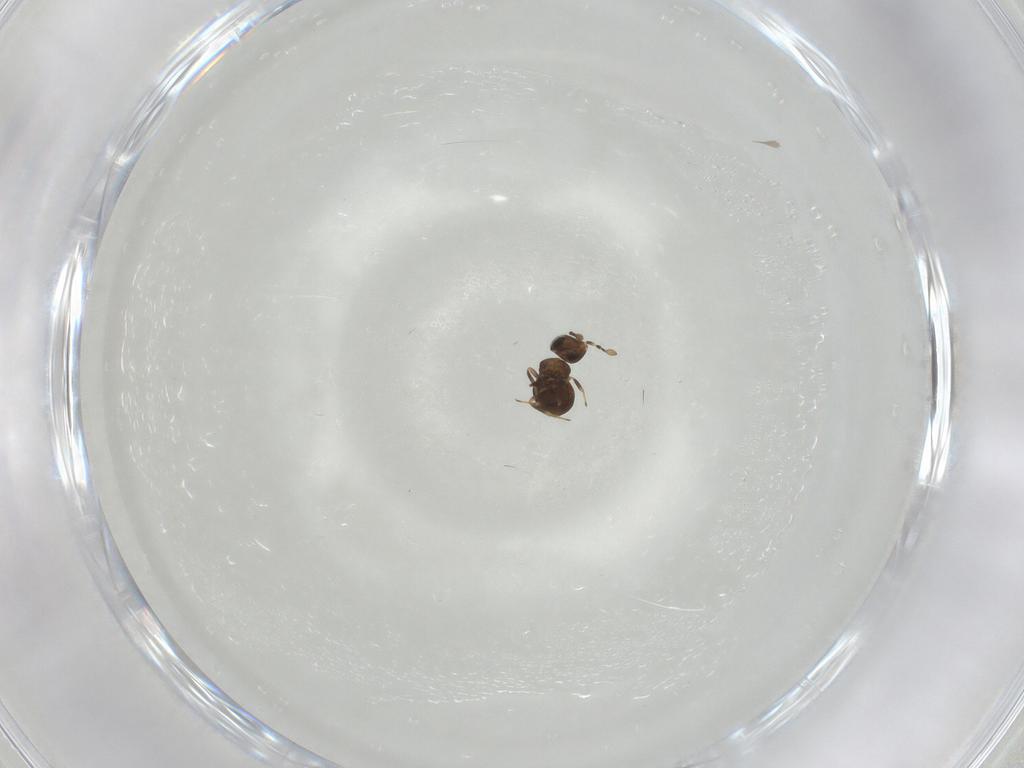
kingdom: Animalia
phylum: Arthropoda
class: Insecta
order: Hymenoptera
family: Scelionidae
